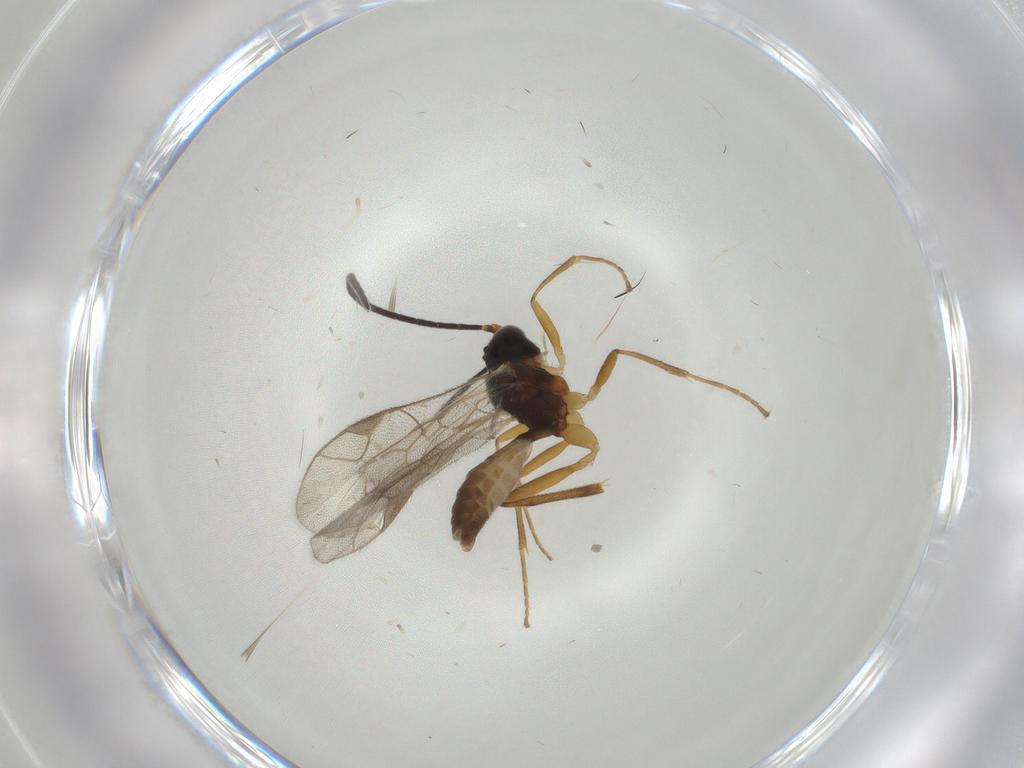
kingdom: Animalia
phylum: Arthropoda
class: Insecta
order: Hymenoptera
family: Ichneumonidae
